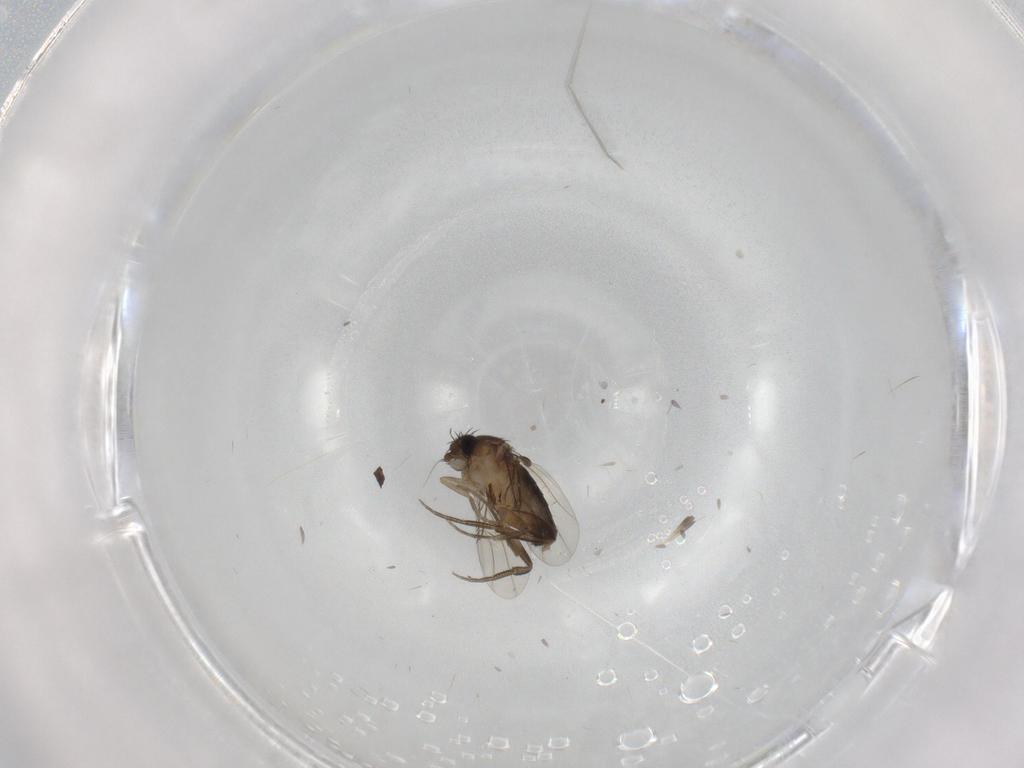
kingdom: Animalia
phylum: Arthropoda
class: Insecta
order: Diptera
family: Phoridae
